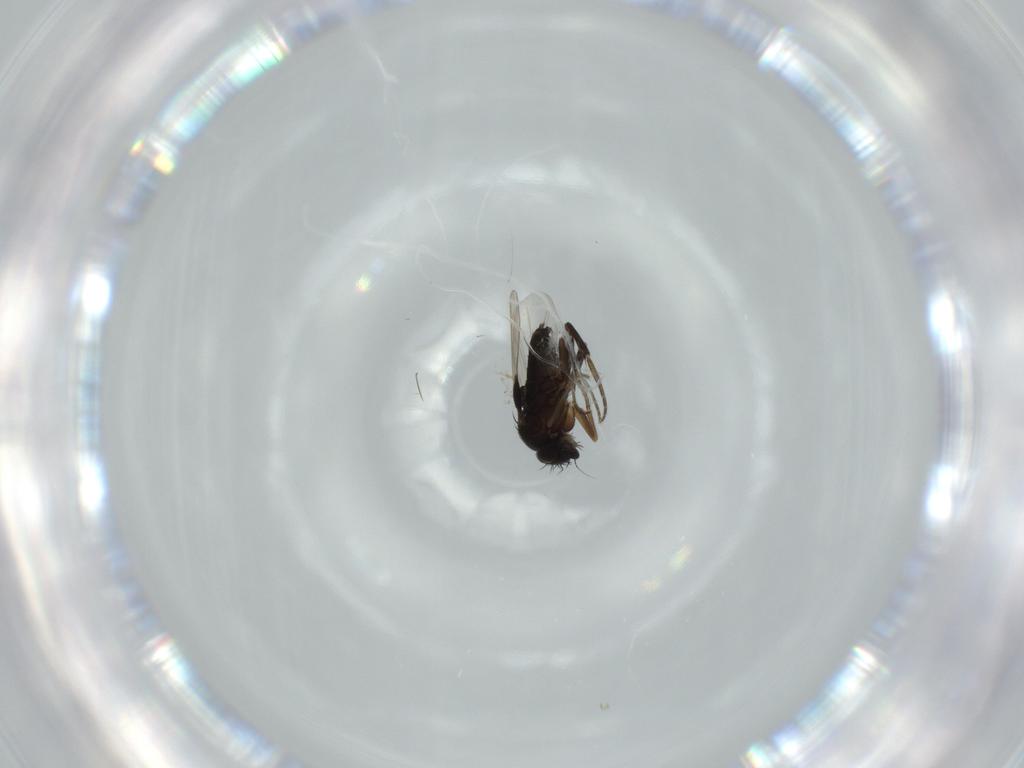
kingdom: Animalia
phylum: Arthropoda
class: Insecta
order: Diptera
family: Phoridae
